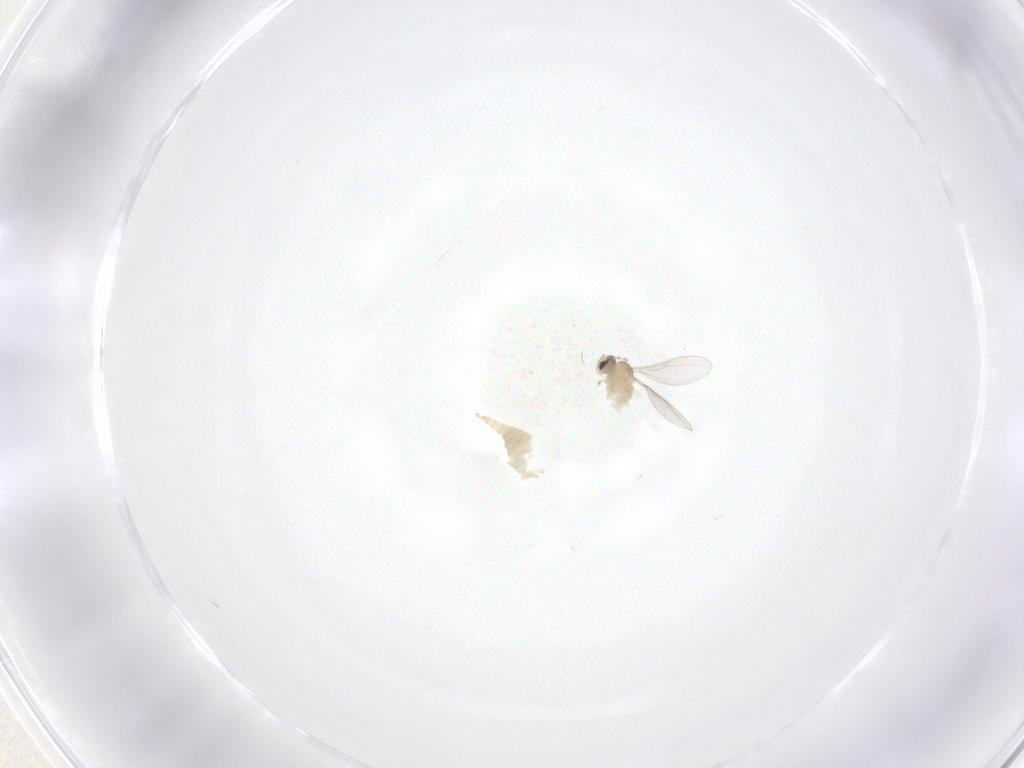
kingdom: Animalia
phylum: Arthropoda
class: Insecta
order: Diptera
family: Cecidomyiidae
